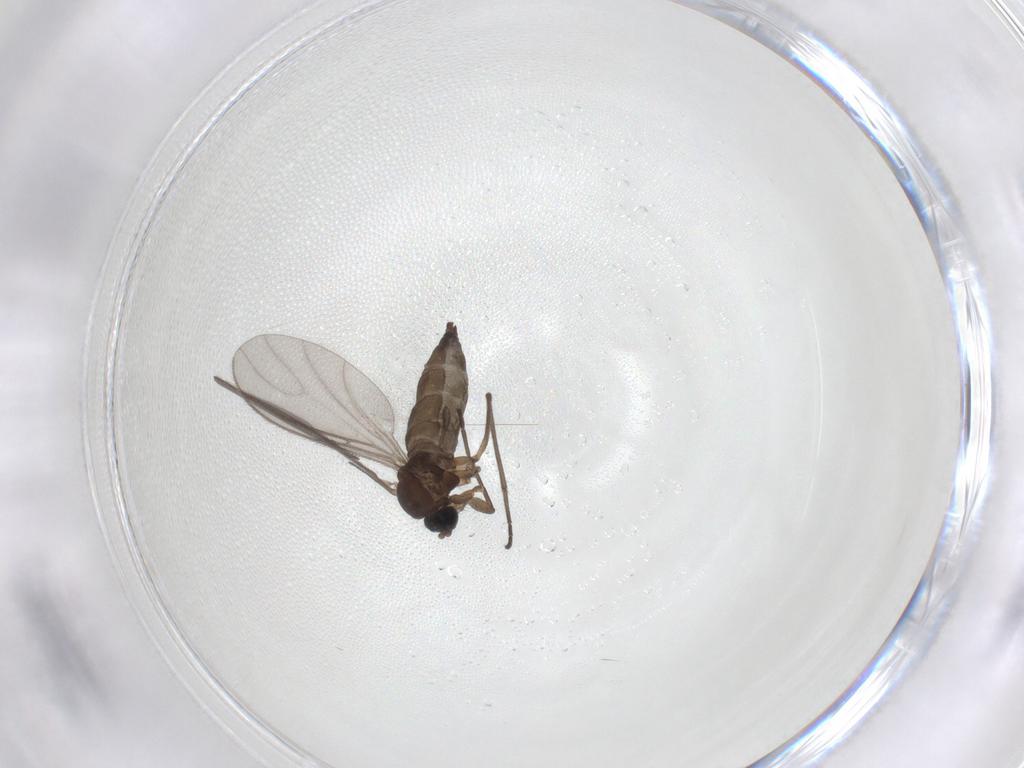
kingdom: Animalia
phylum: Arthropoda
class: Insecta
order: Diptera
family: Sciaridae
